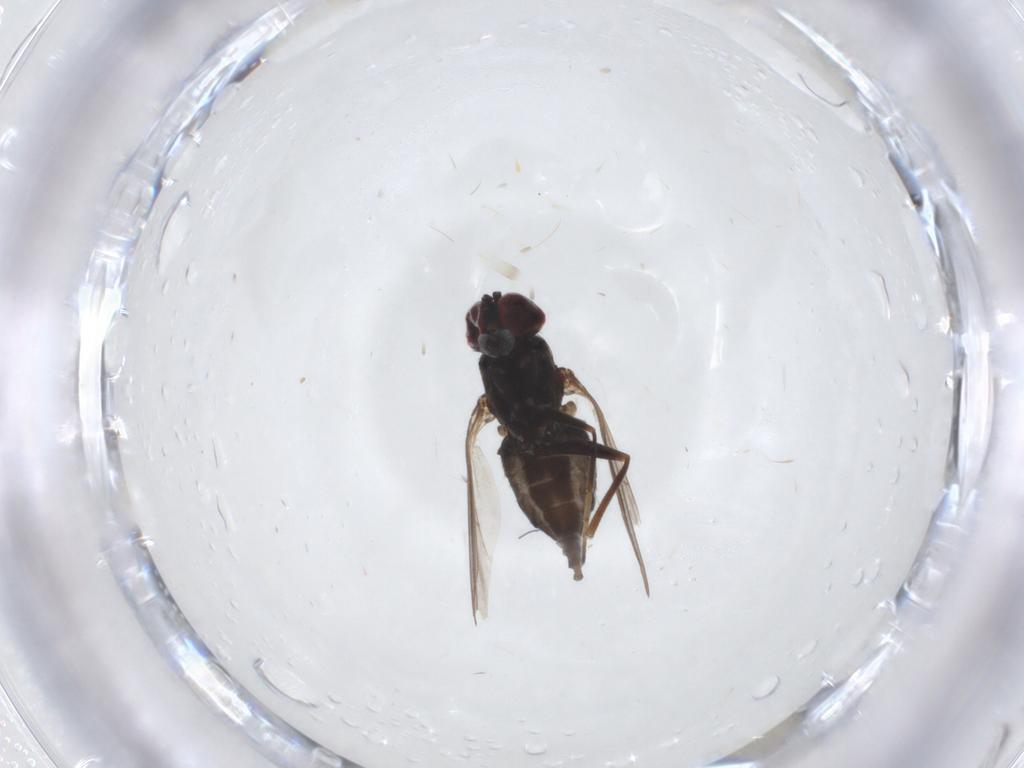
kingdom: Animalia
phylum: Arthropoda
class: Insecta
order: Diptera
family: Dolichopodidae
